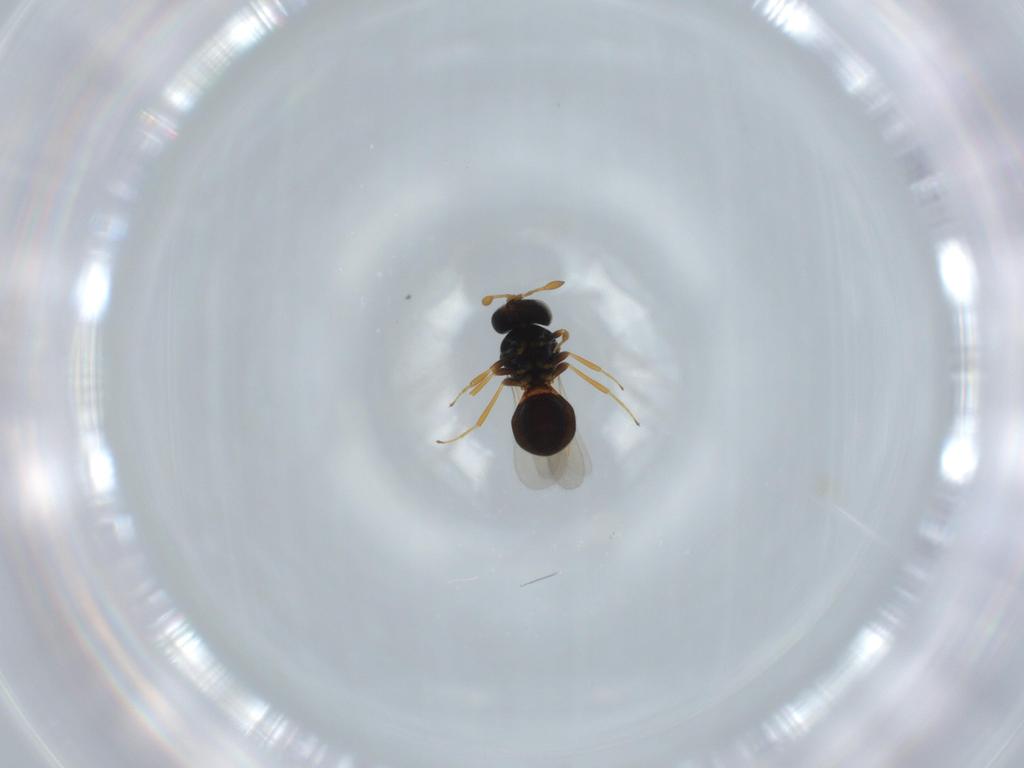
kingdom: Animalia
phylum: Arthropoda
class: Insecta
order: Hymenoptera
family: Scelionidae
